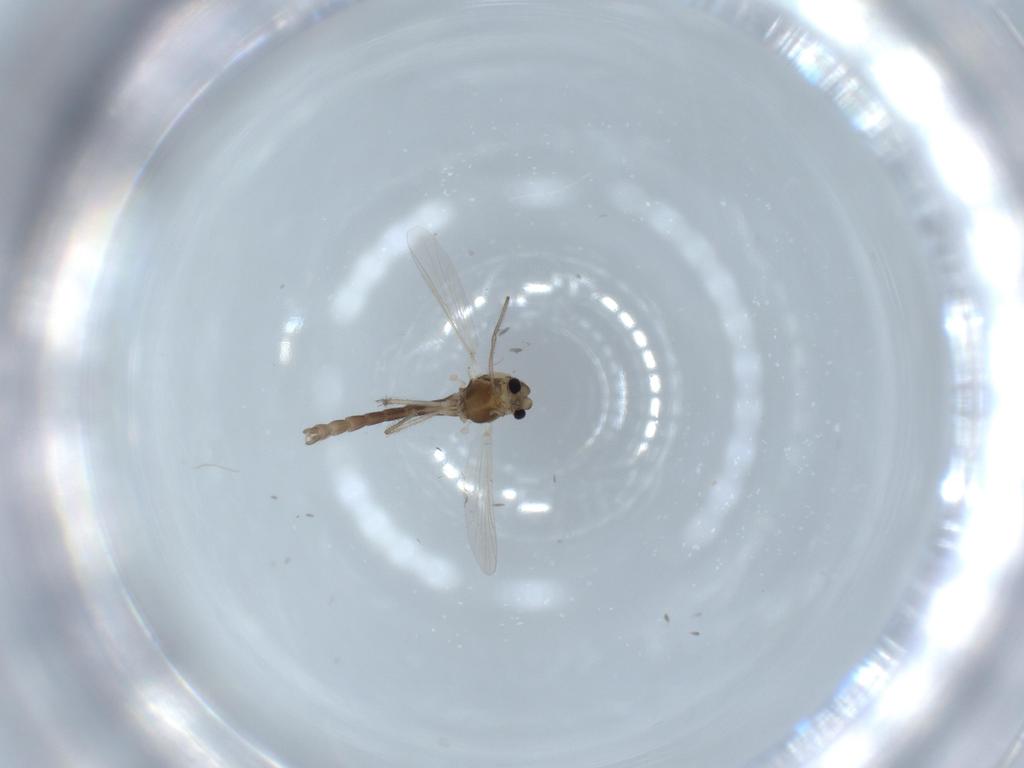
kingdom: Animalia
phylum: Arthropoda
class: Insecta
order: Diptera
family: Chironomidae
